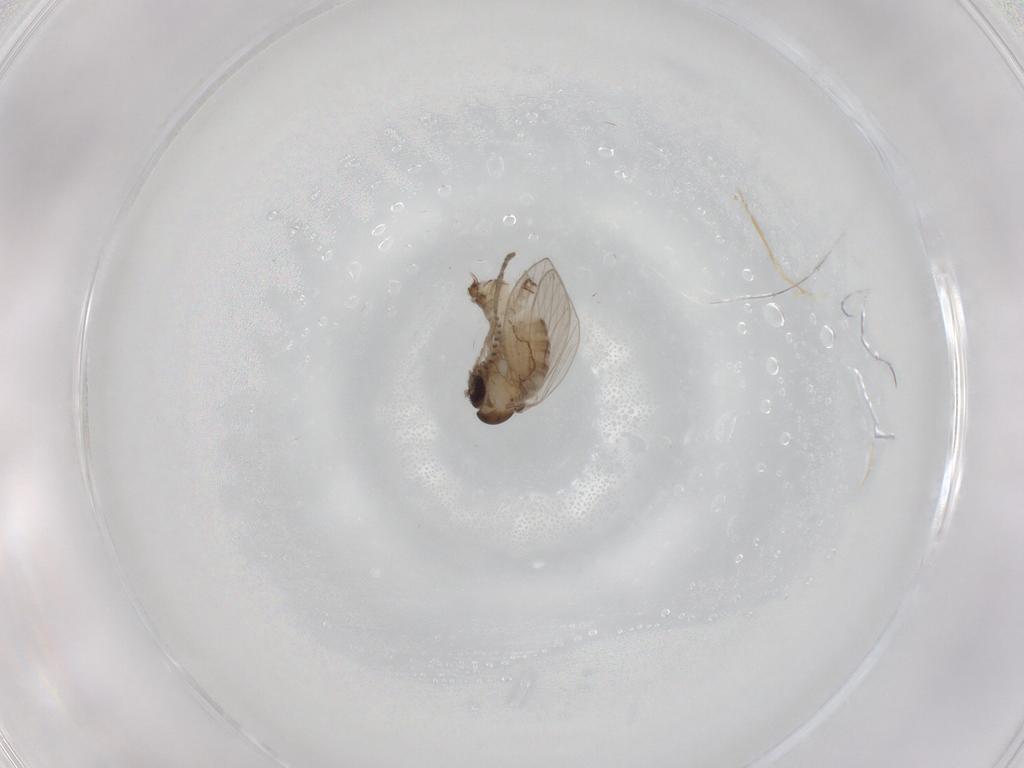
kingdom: Animalia
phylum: Arthropoda
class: Insecta
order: Diptera
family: Psychodidae
